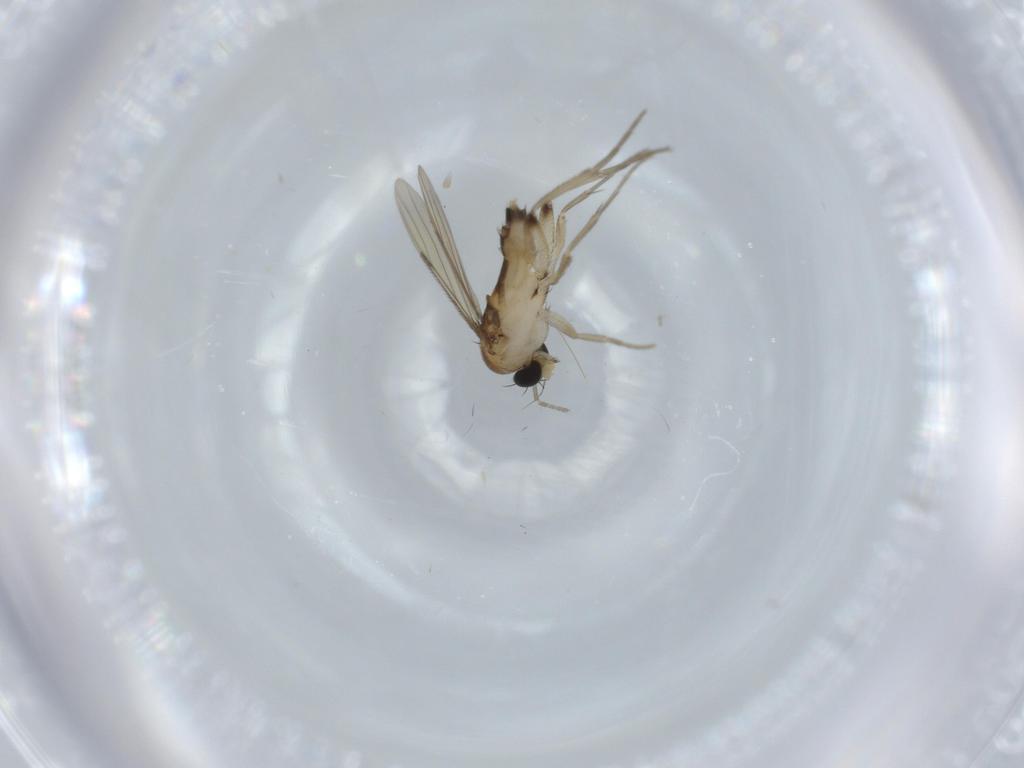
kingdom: Animalia
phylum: Arthropoda
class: Insecta
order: Diptera
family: Phoridae
